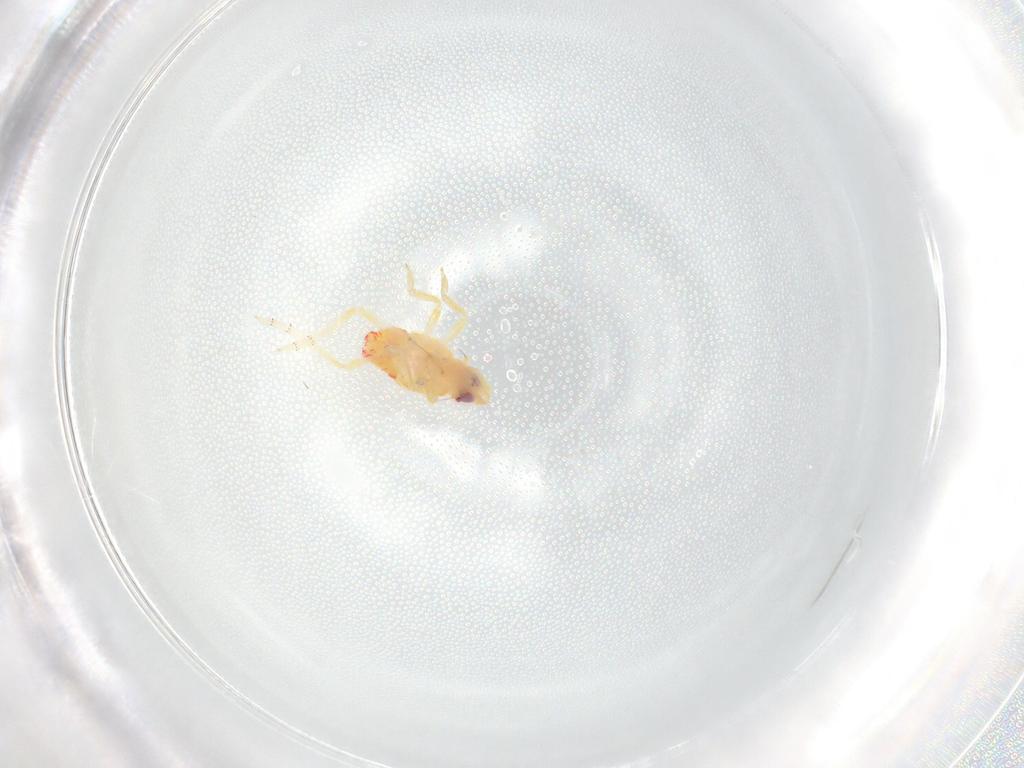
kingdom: Animalia
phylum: Arthropoda
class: Insecta
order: Hemiptera
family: Tropiduchidae
